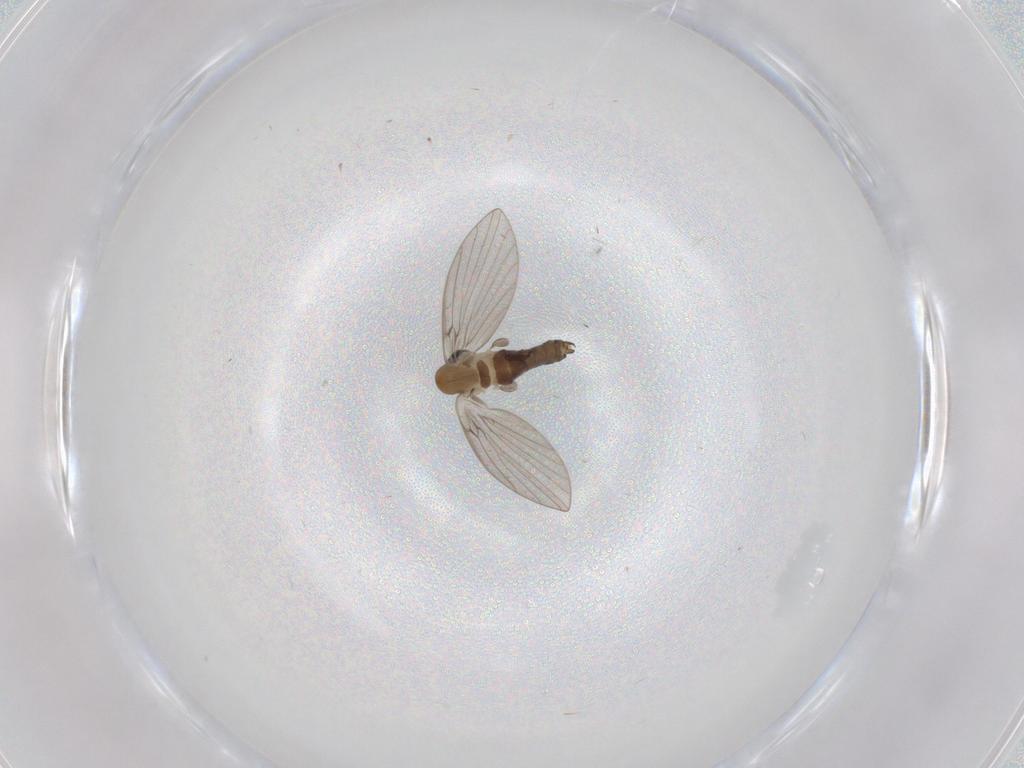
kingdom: Animalia
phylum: Arthropoda
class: Insecta
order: Diptera
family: Psychodidae
